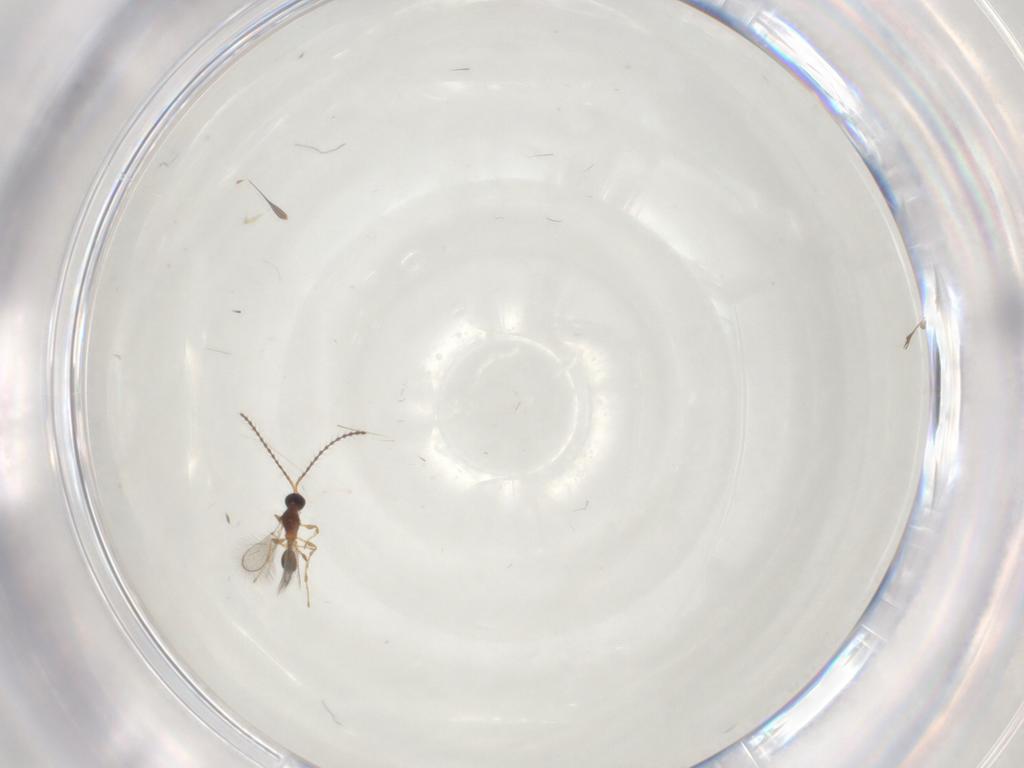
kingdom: Animalia
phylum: Arthropoda
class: Insecta
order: Hymenoptera
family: Diapriidae
